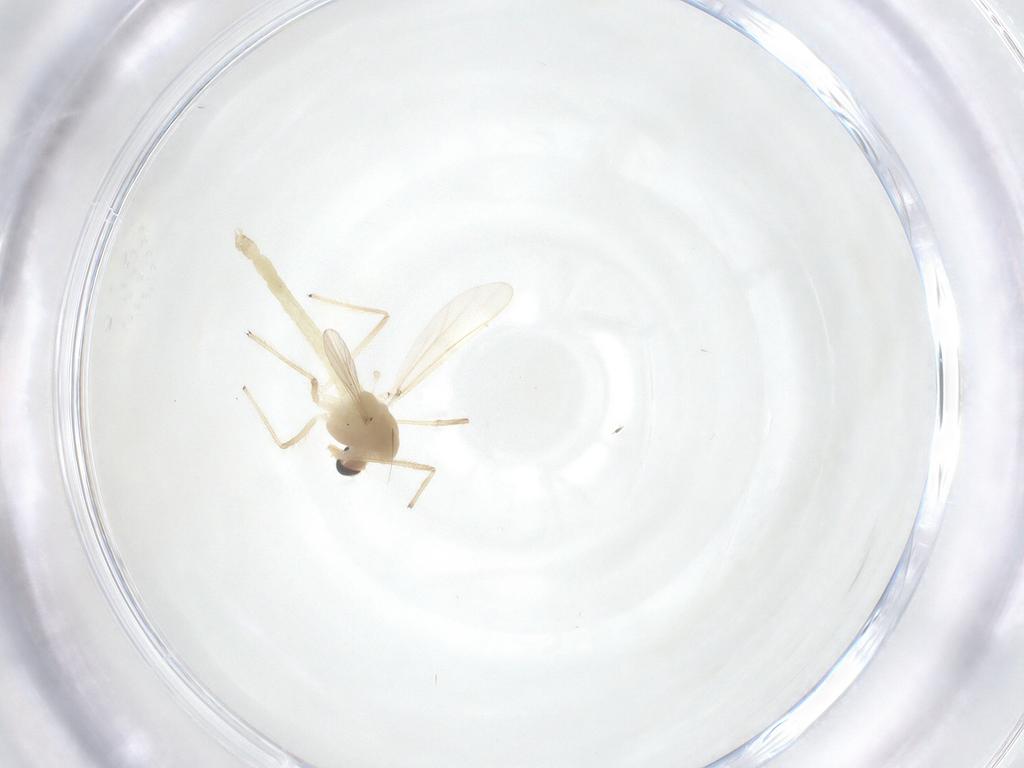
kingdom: Animalia
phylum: Arthropoda
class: Insecta
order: Diptera
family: Chironomidae
